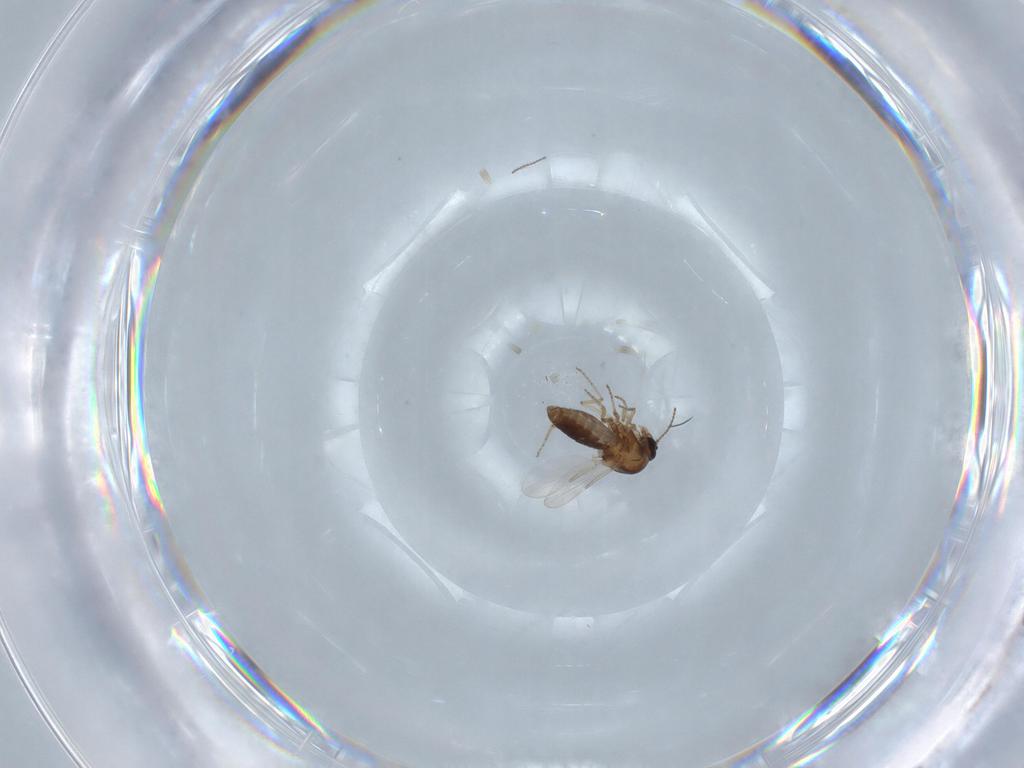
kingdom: Animalia
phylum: Arthropoda
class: Insecta
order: Diptera
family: Ceratopogonidae
